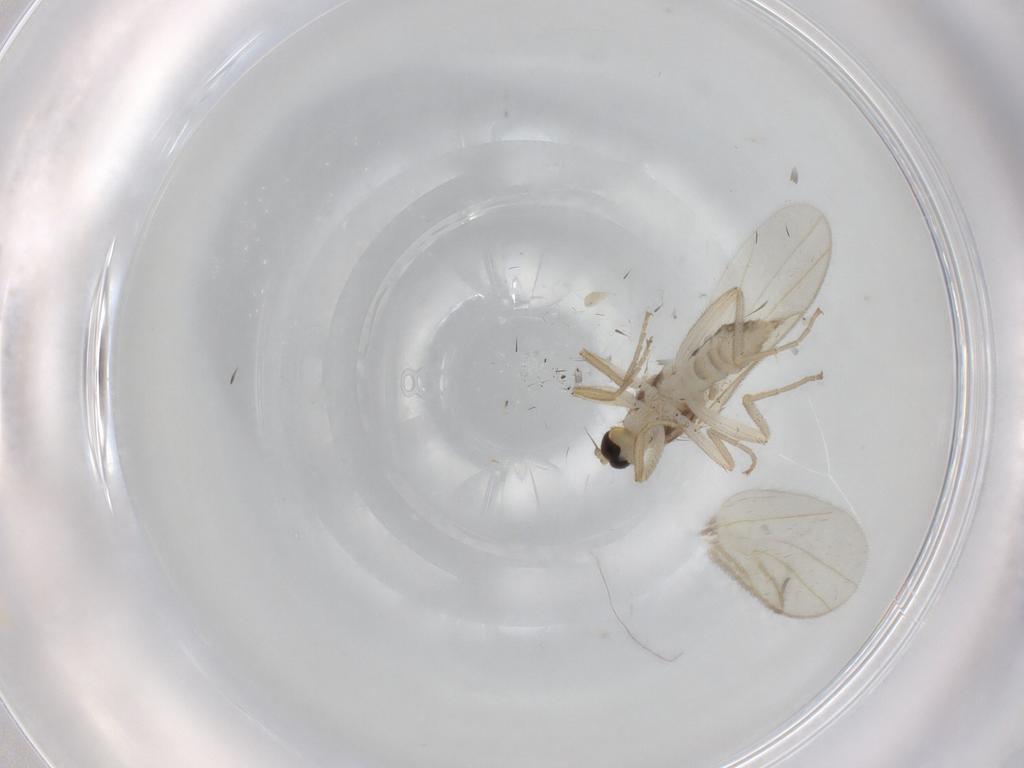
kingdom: Animalia
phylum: Arthropoda
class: Insecta
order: Diptera
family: Hybotidae
